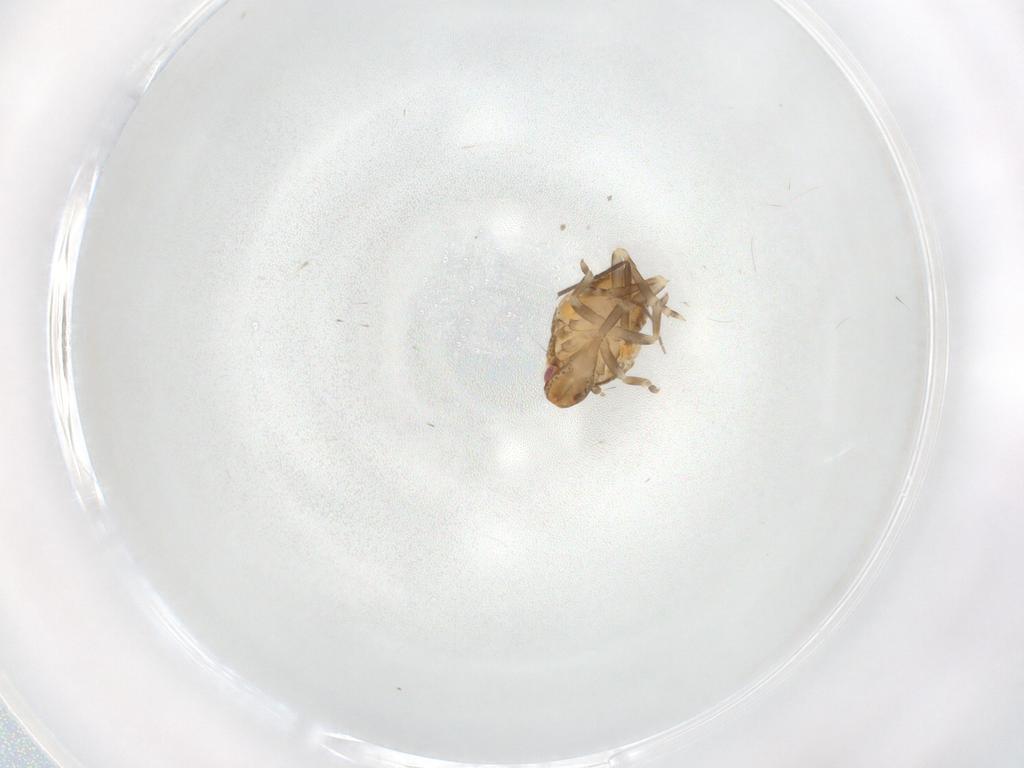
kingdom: Animalia
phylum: Arthropoda
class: Insecta
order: Hemiptera
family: Flatidae
